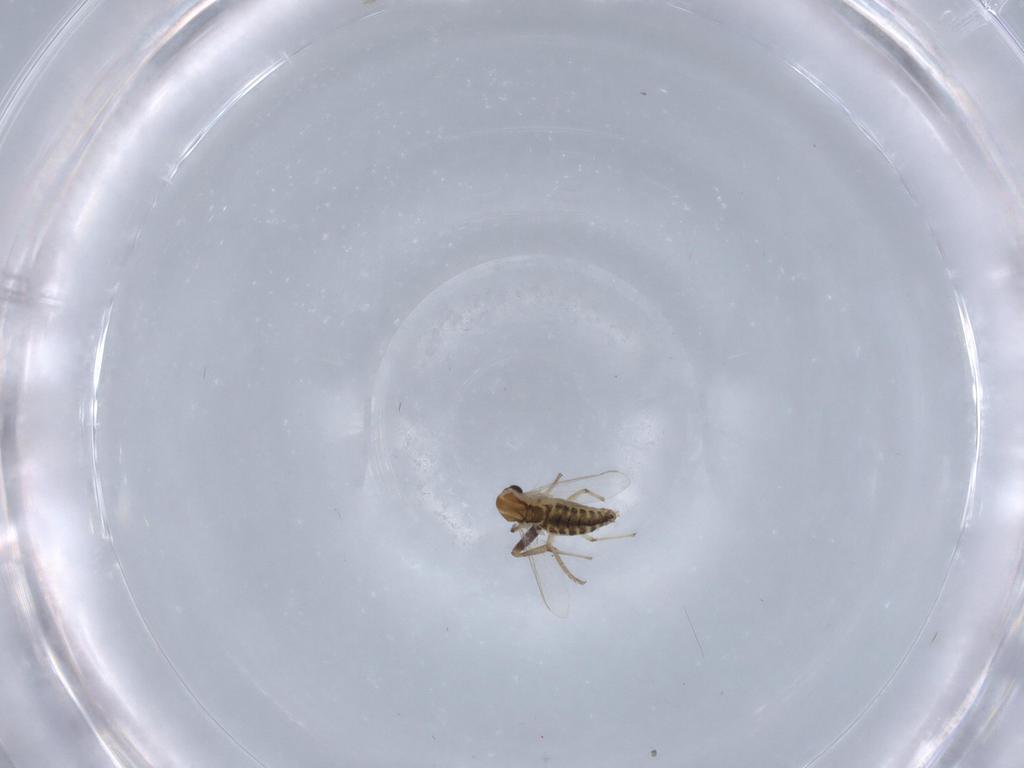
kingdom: Animalia
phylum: Arthropoda
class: Insecta
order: Diptera
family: Chironomidae
